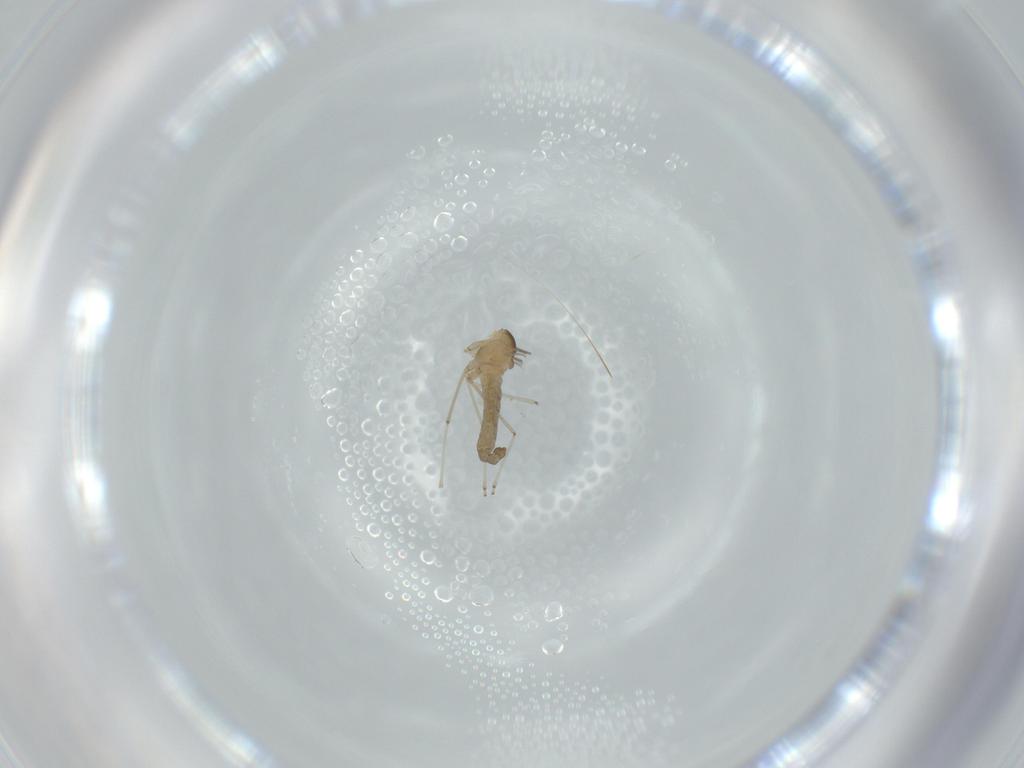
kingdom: Animalia
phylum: Arthropoda
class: Insecta
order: Diptera
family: Cecidomyiidae
